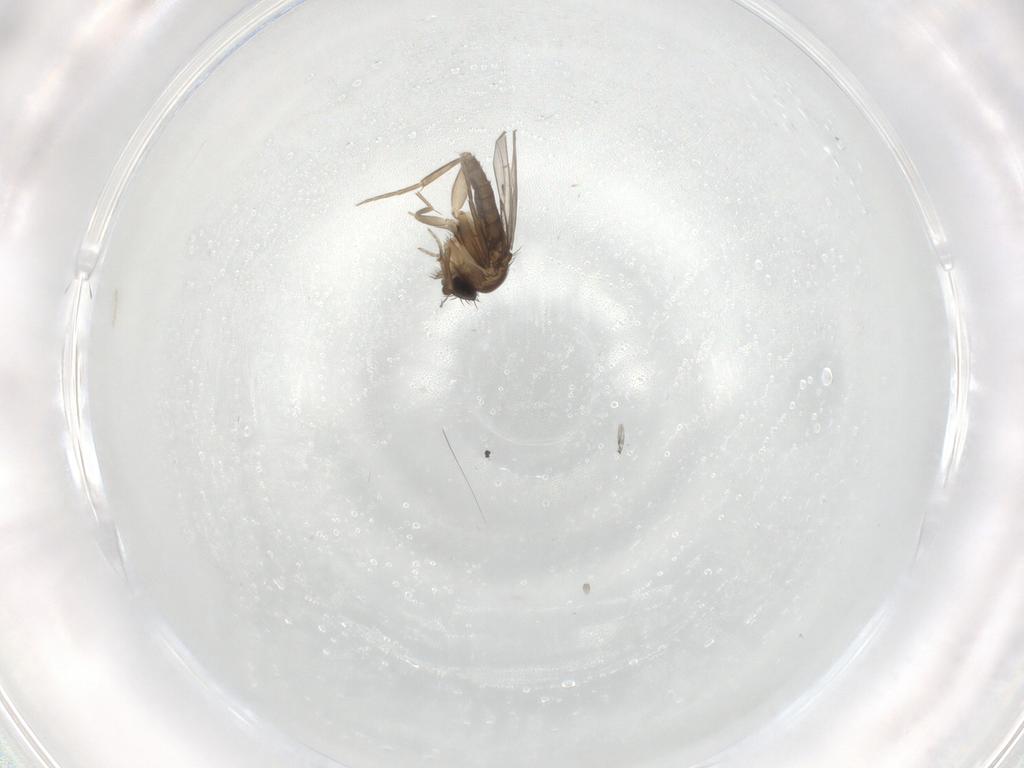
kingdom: Animalia
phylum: Arthropoda
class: Insecta
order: Diptera
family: Phoridae
